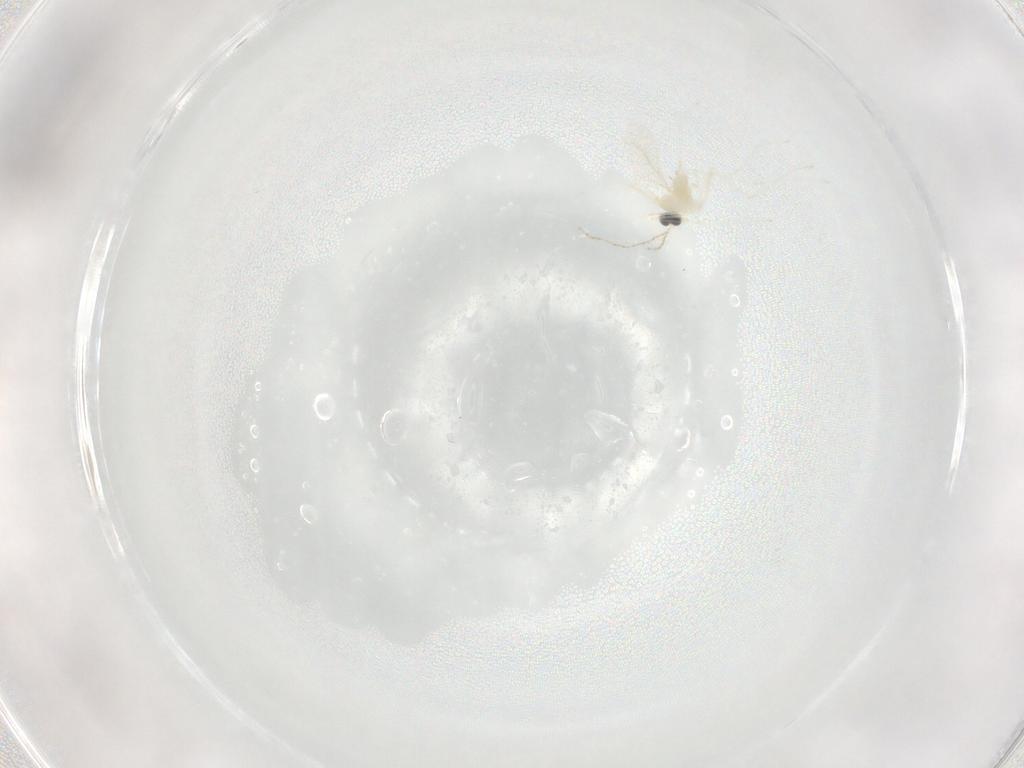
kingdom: Animalia
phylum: Arthropoda
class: Insecta
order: Diptera
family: Cecidomyiidae
